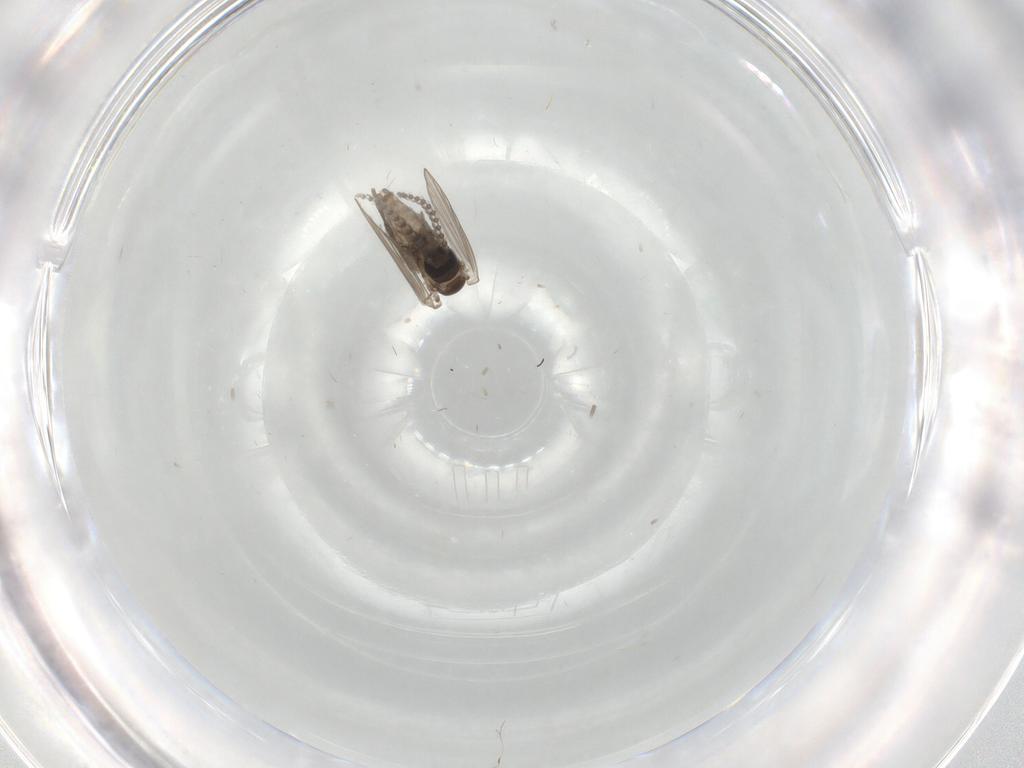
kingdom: Animalia
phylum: Arthropoda
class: Insecta
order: Diptera
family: Psychodidae
